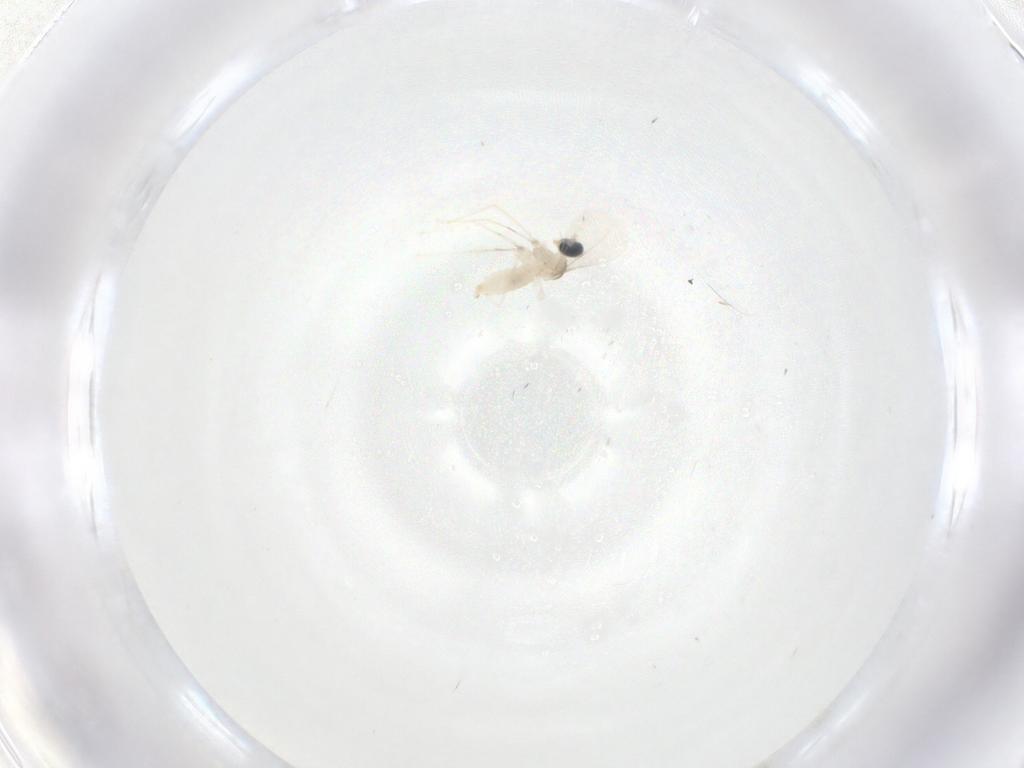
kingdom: Animalia
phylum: Arthropoda
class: Insecta
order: Diptera
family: Cecidomyiidae
